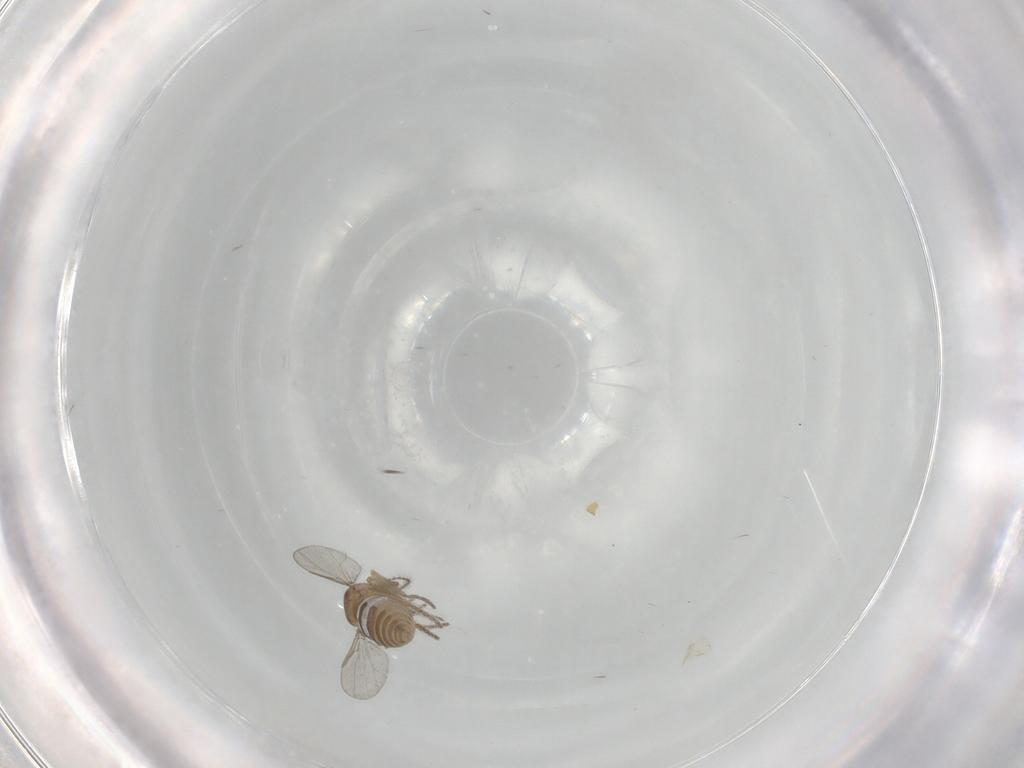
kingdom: Animalia
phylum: Arthropoda
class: Insecta
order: Diptera
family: Ceratopogonidae
